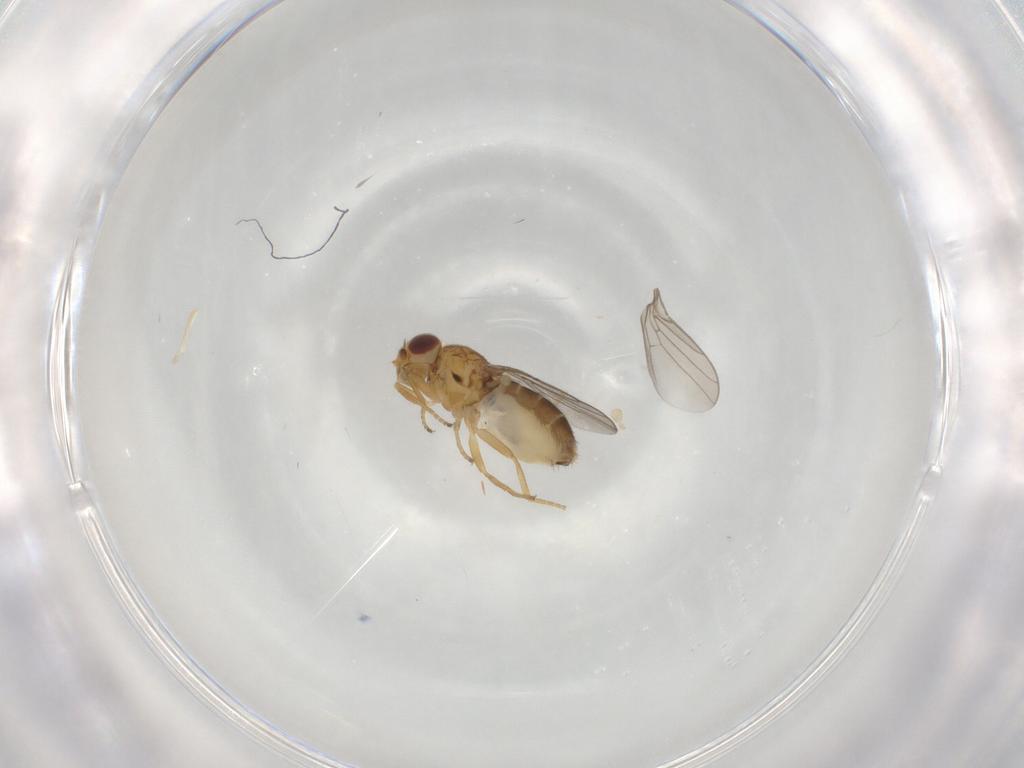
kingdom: Animalia
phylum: Arthropoda
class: Insecta
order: Diptera
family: Chloropidae
